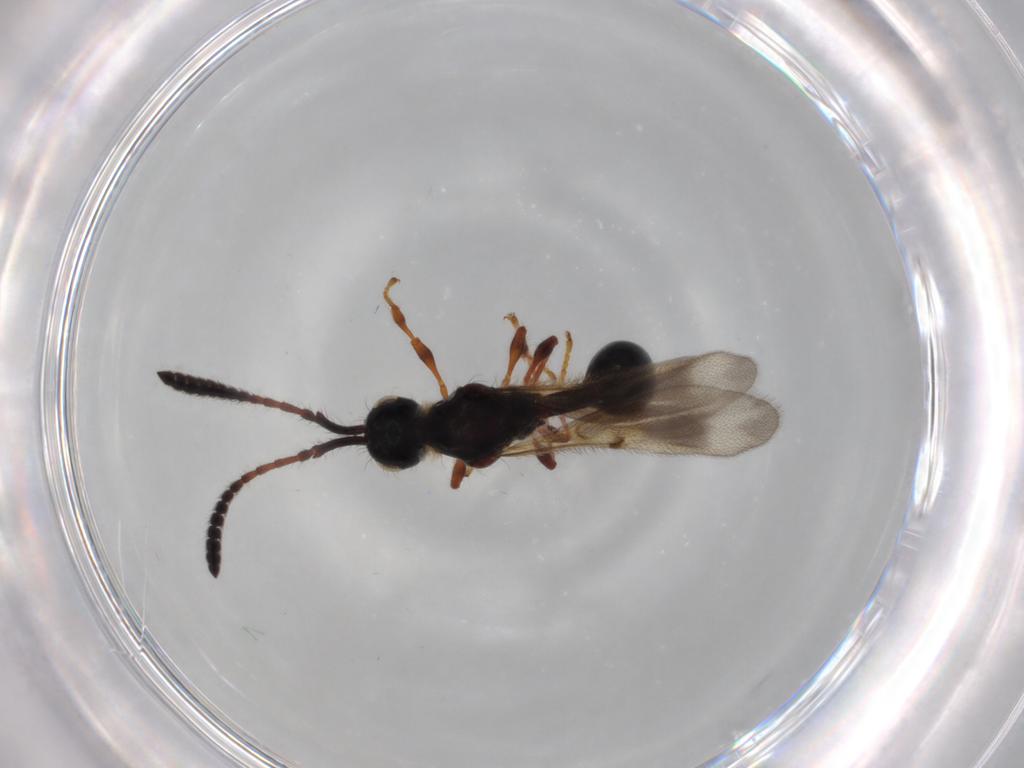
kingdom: Animalia
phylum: Arthropoda
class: Insecta
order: Hymenoptera
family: Diapriidae
